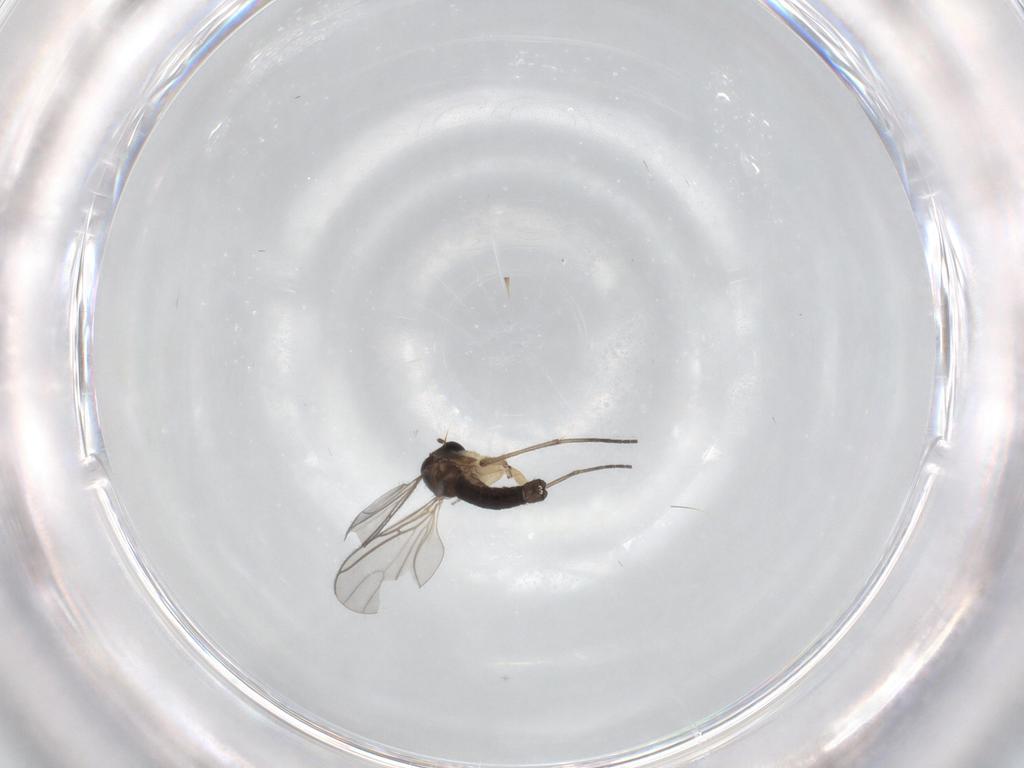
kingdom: Animalia
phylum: Arthropoda
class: Insecta
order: Diptera
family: Sciaridae
